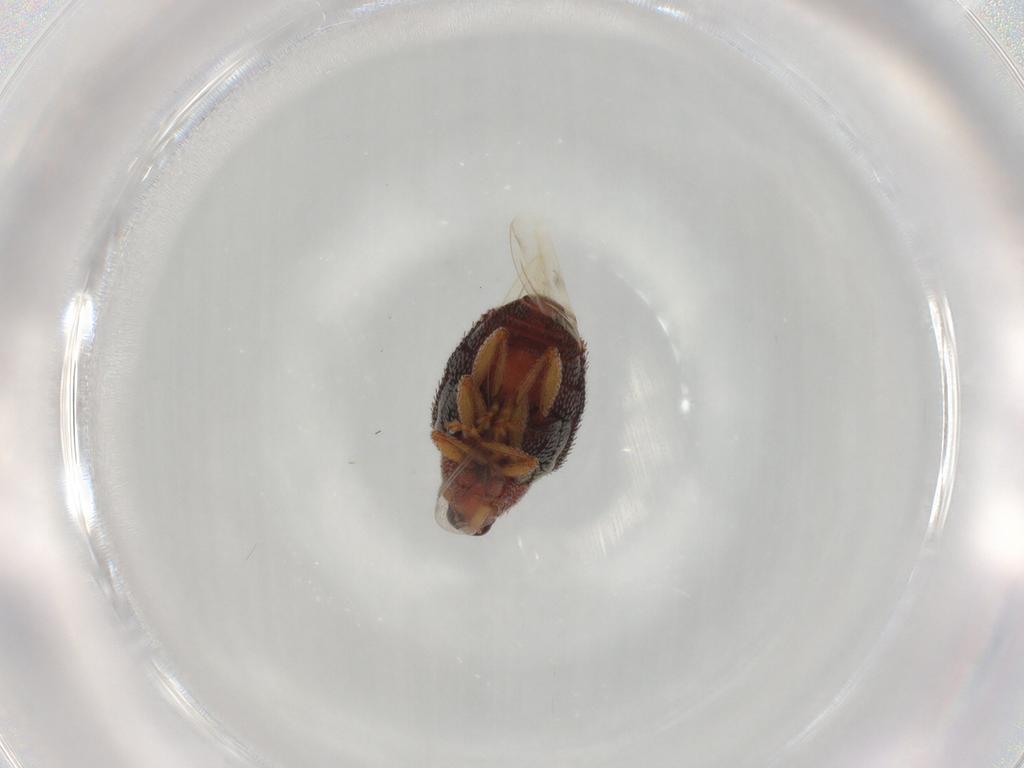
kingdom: Animalia
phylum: Arthropoda
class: Insecta
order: Coleoptera
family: Curculionidae
